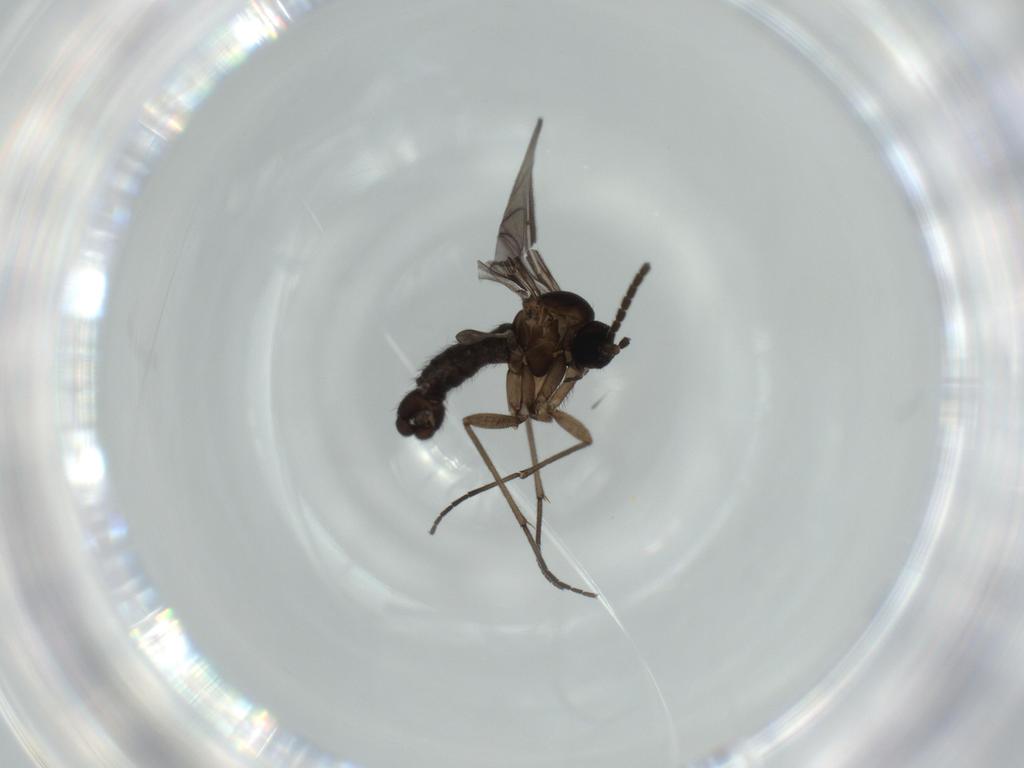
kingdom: Animalia
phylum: Arthropoda
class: Insecta
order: Diptera
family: Sciaridae
